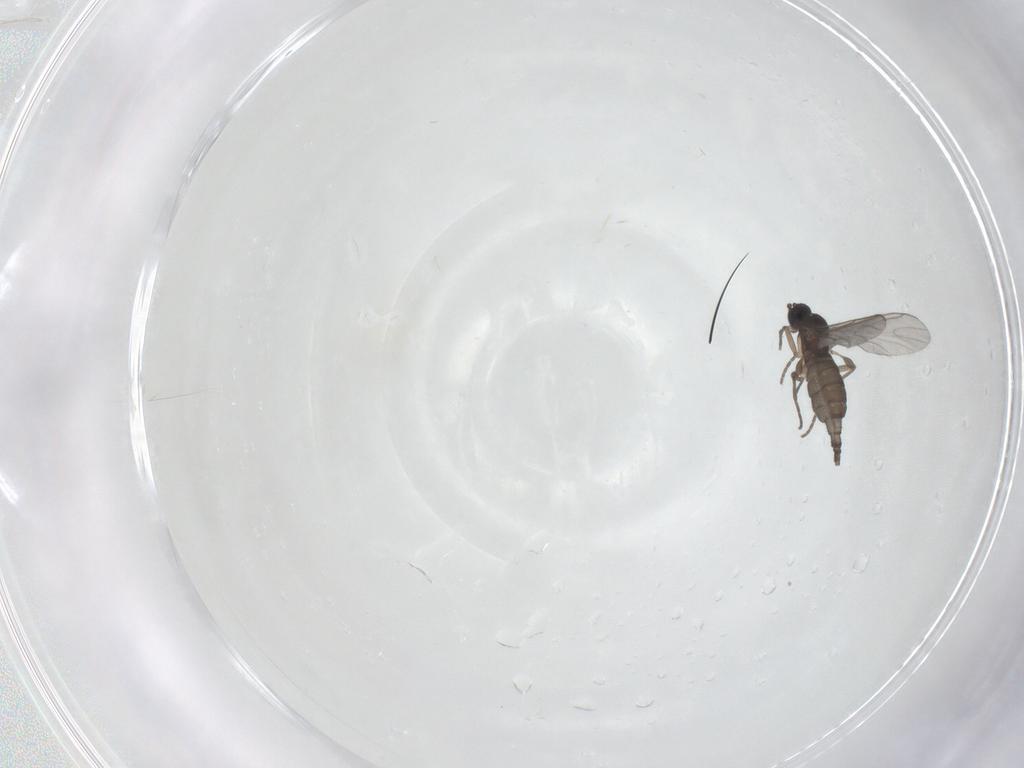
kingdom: Animalia
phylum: Arthropoda
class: Insecta
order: Diptera
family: Sciaridae
